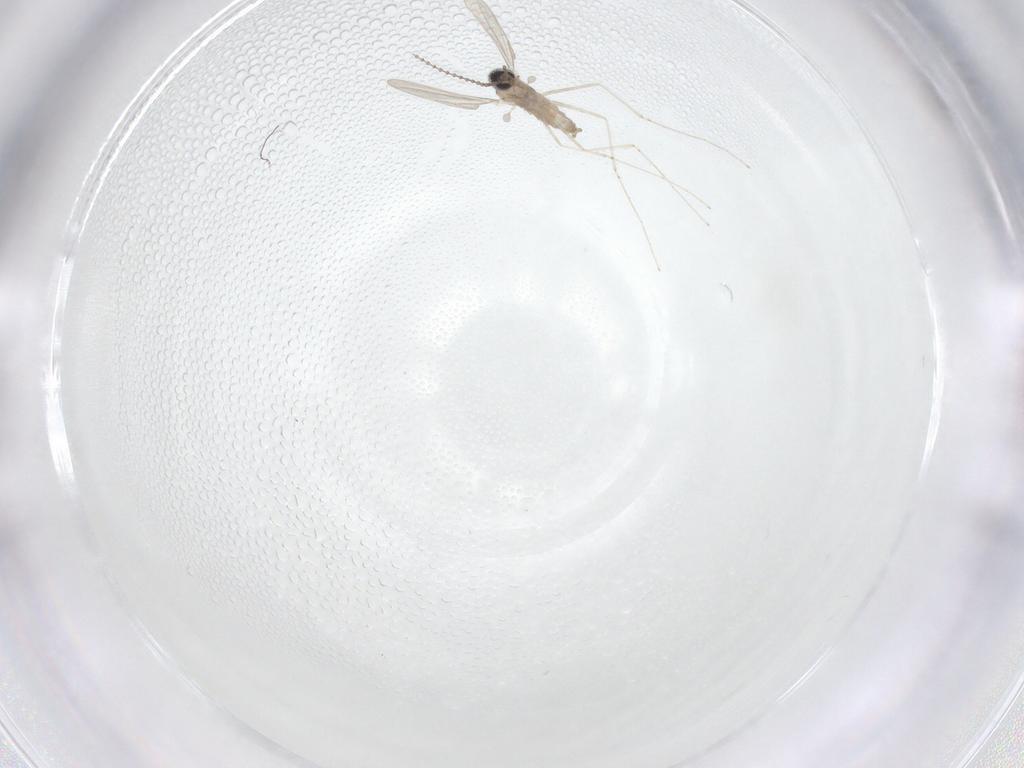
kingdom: Animalia
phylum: Arthropoda
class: Insecta
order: Diptera
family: Cecidomyiidae
